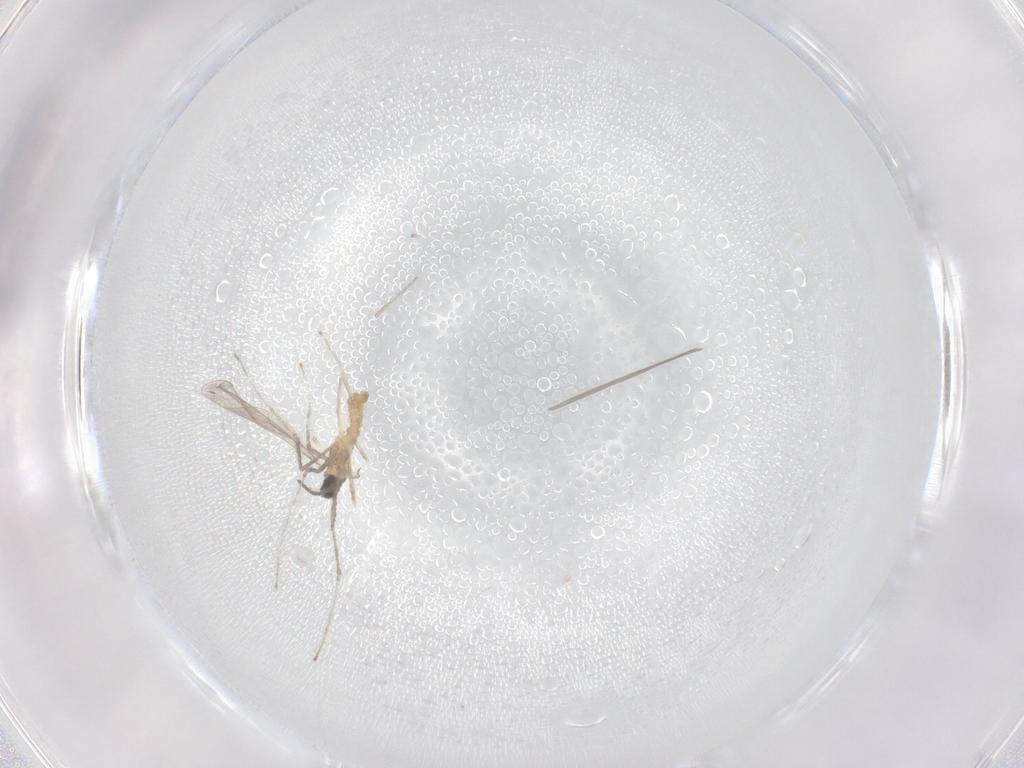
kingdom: Animalia
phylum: Arthropoda
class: Insecta
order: Diptera
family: Cecidomyiidae
